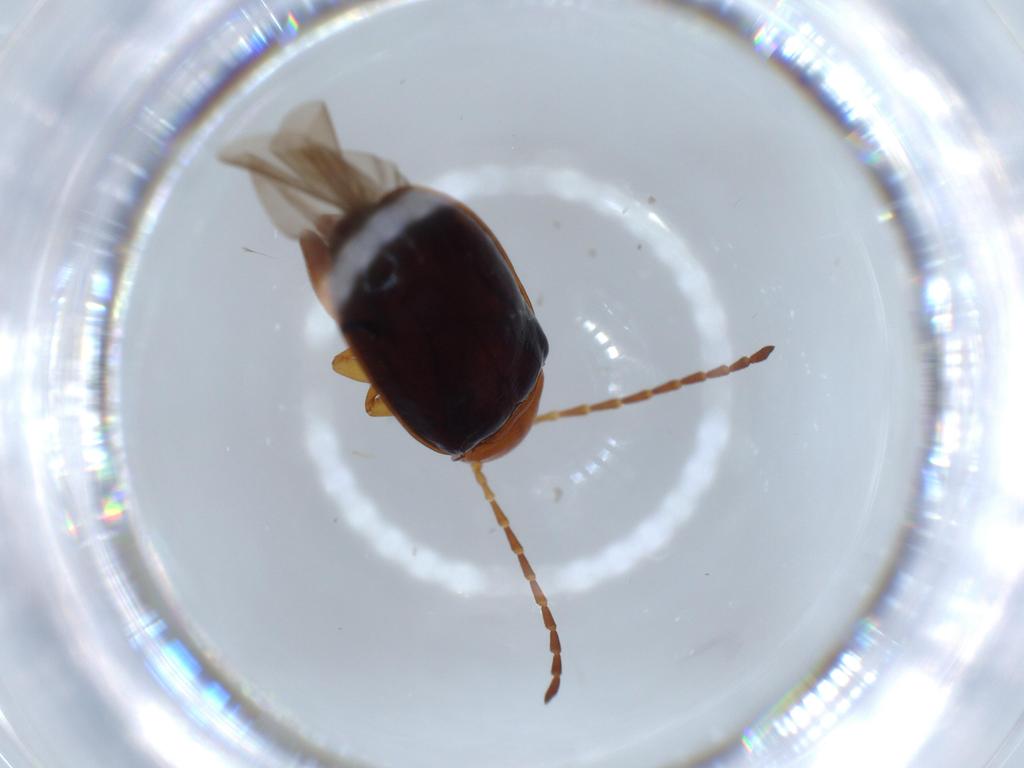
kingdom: Animalia
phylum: Arthropoda
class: Insecta
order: Coleoptera
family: Chrysomelidae
